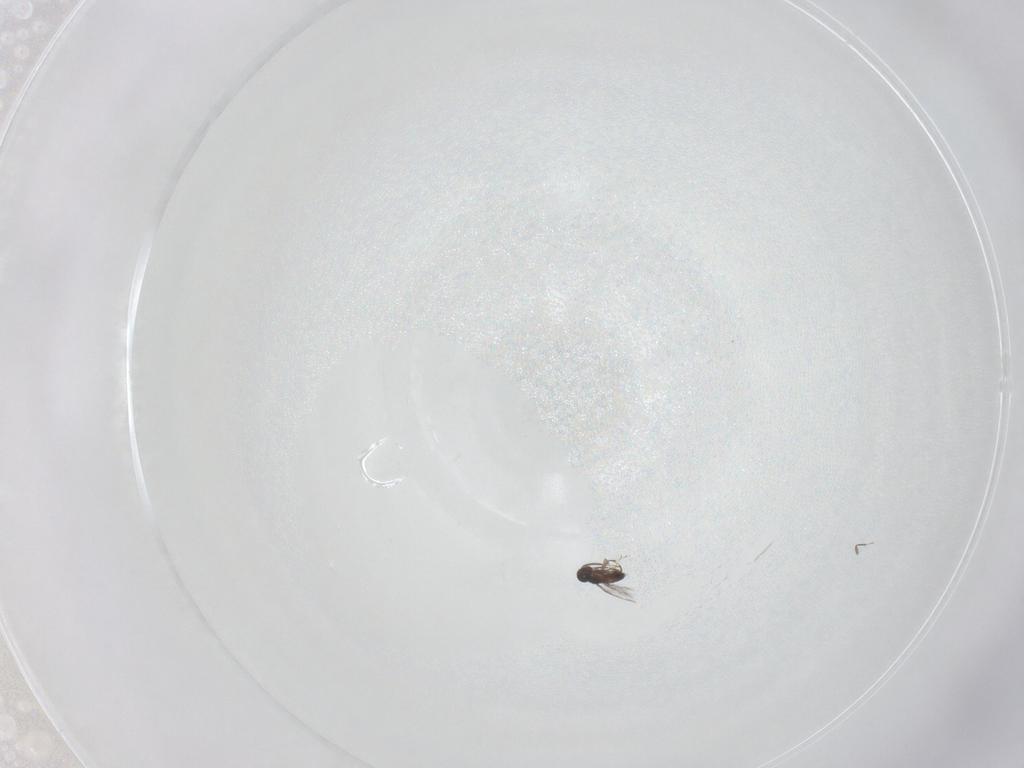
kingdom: Animalia
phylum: Arthropoda
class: Insecta
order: Hymenoptera
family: Signiphoridae
